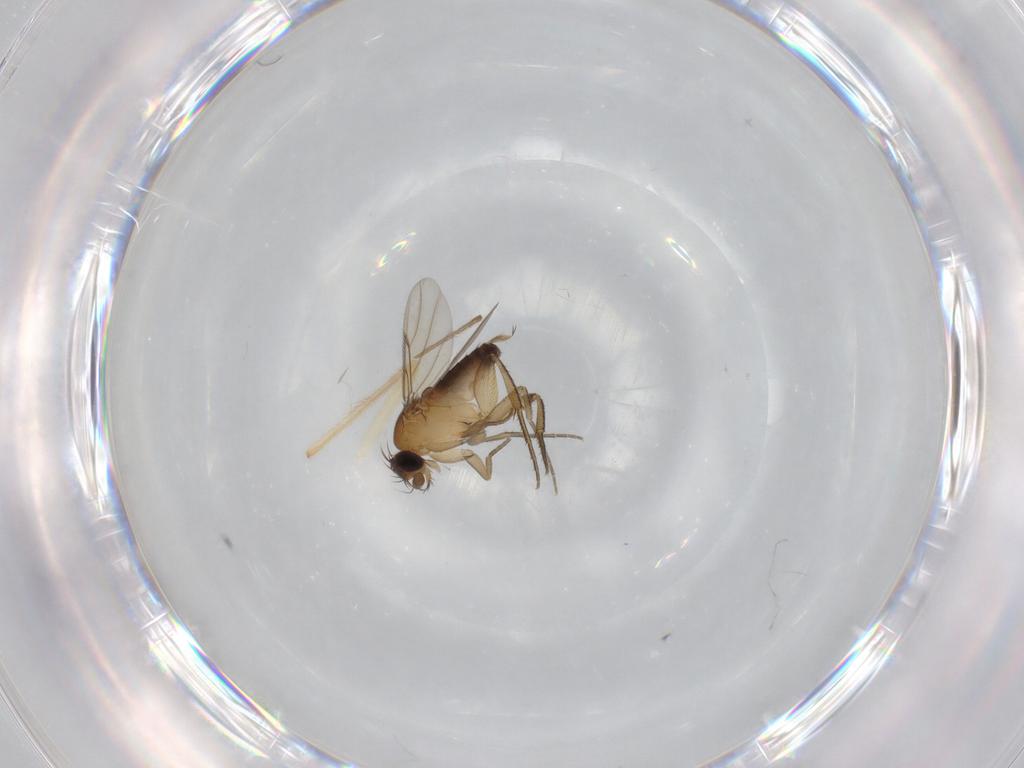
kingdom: Animalia
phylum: Arthropoda
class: Insecta
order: Diptera
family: Phoridae
